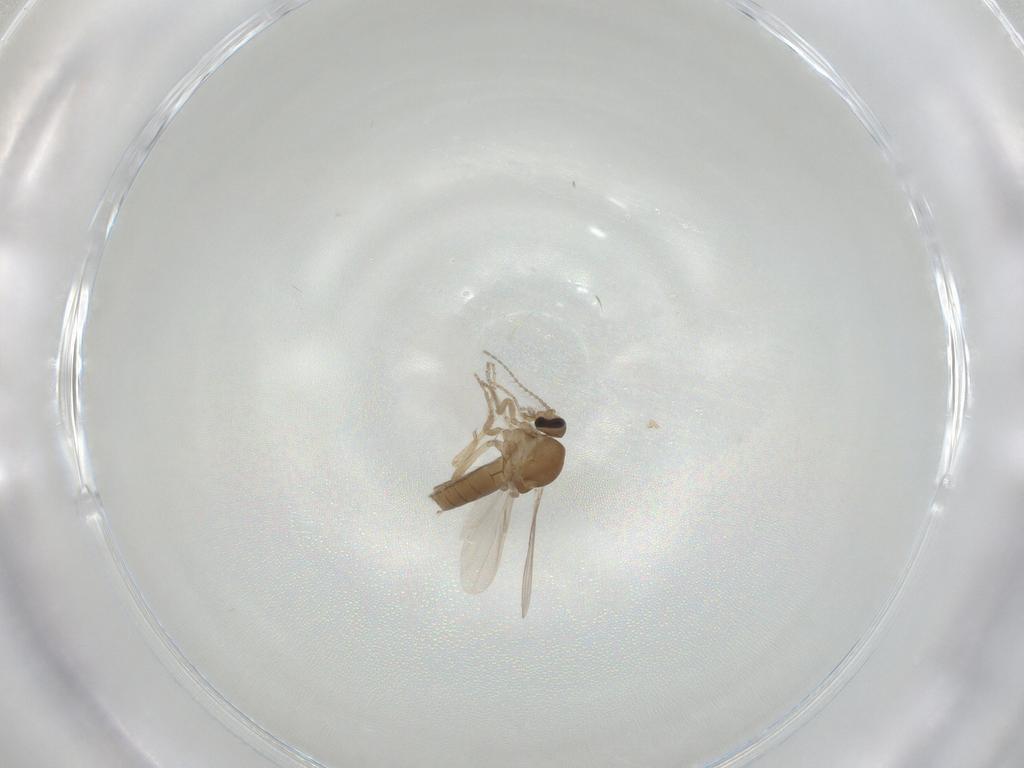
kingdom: Animalia
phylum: Arthropoda
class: Insecta
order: Diptera
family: Ceratopogonidae
